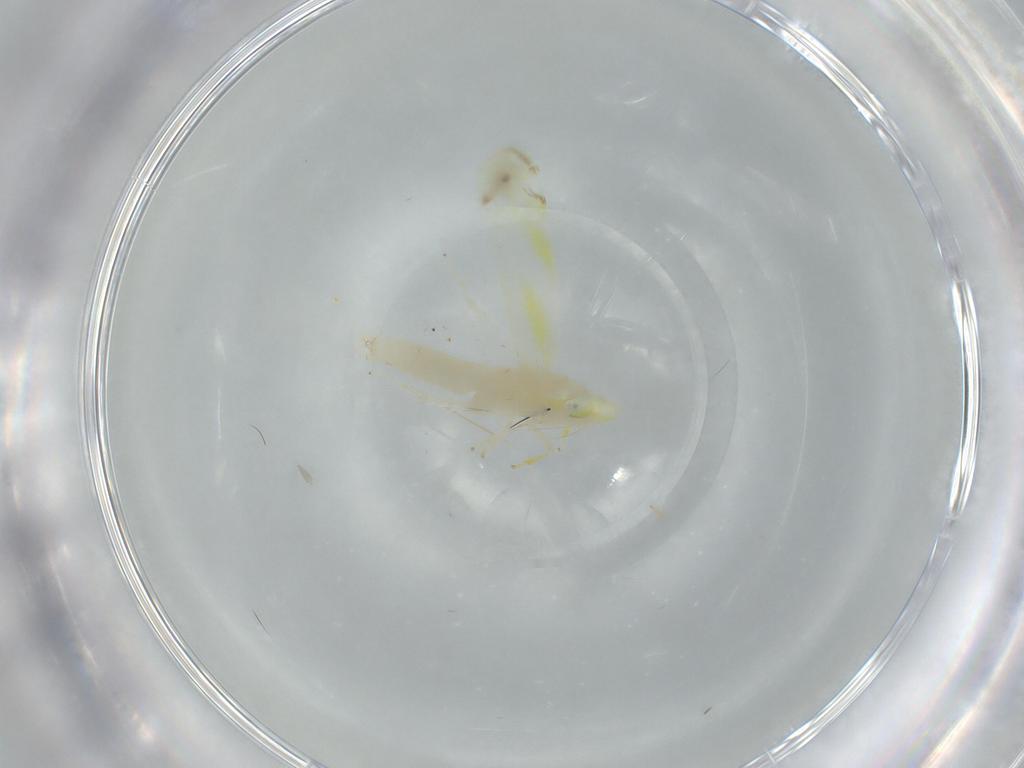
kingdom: Animalia
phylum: Arthropoda
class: Insecta
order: Hemiptera
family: Cicadellidae
